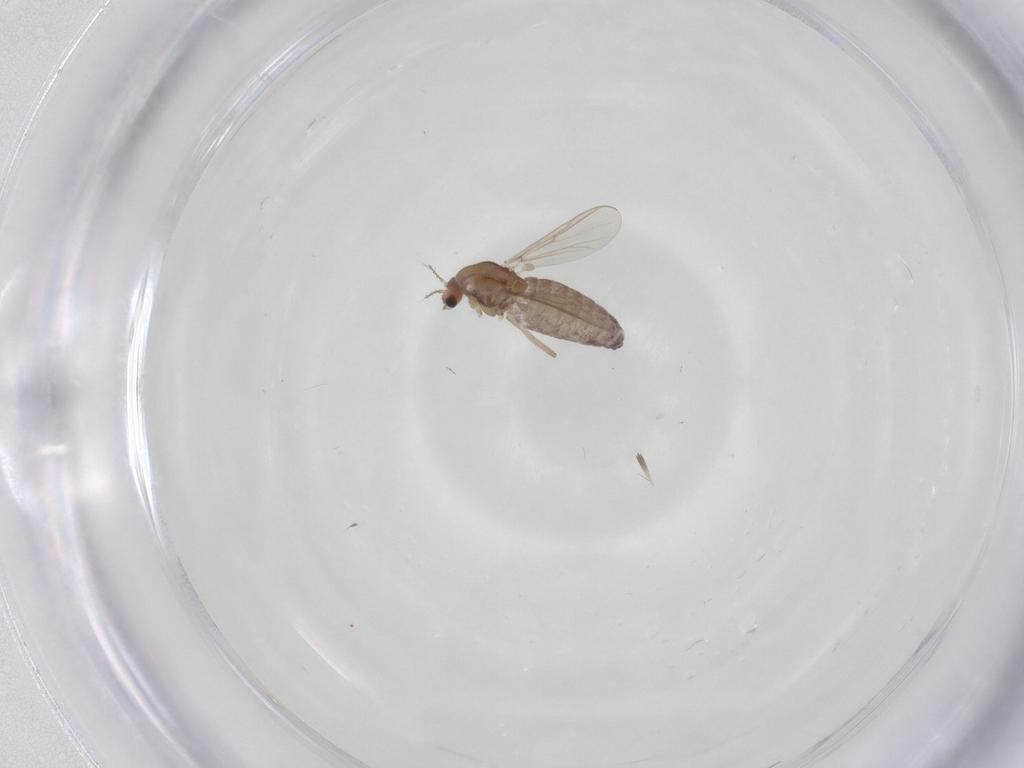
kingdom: Animalia
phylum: Arthropoda
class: Insecta
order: Diptera
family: Chironomidae
